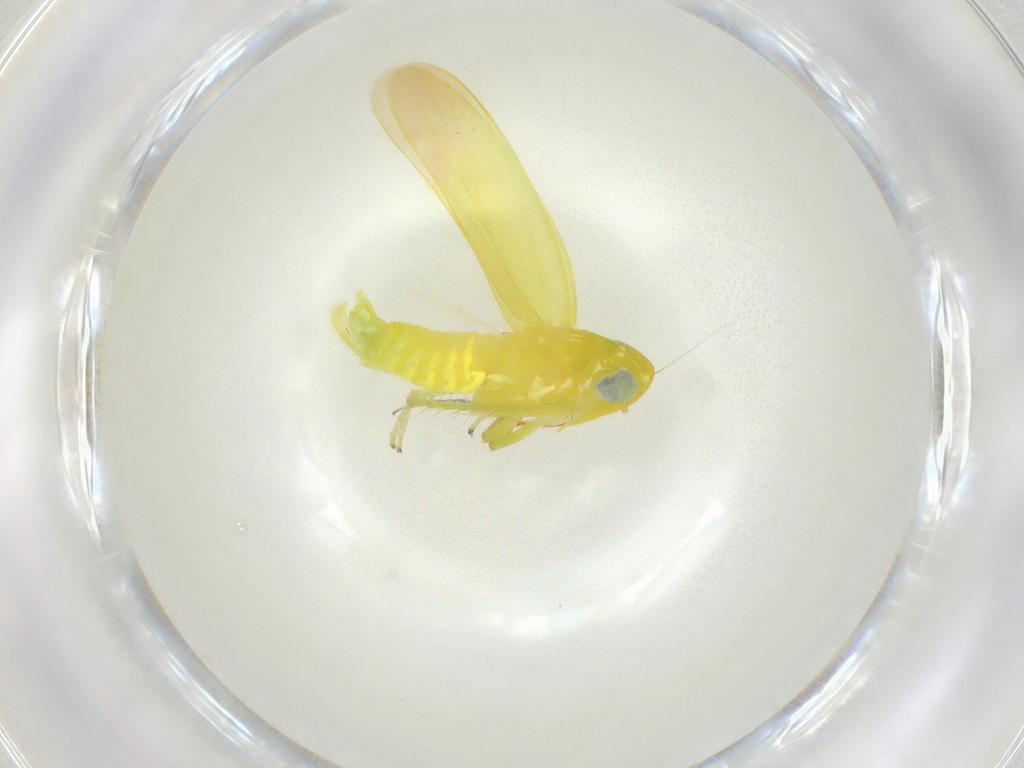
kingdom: Animalia
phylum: Arthropoda
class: Insecta
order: Hemiptera
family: Cicadellidae
